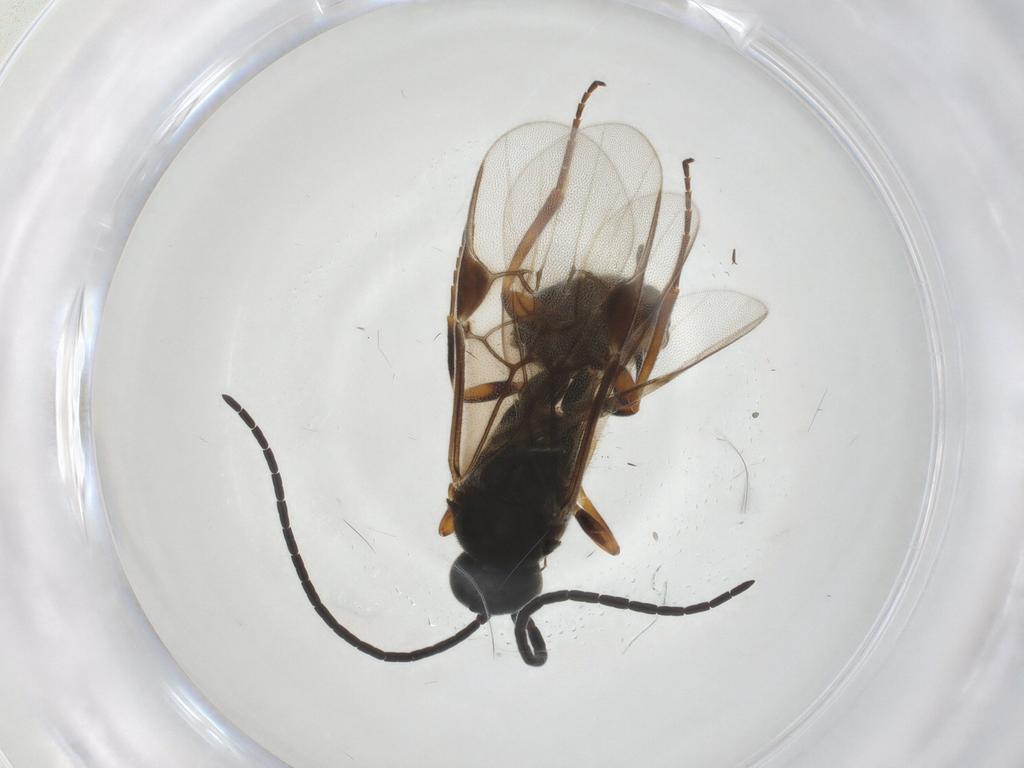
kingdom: Animalia
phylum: Arthropoda
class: Insecta
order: Hymenoptera
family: Braconidae
